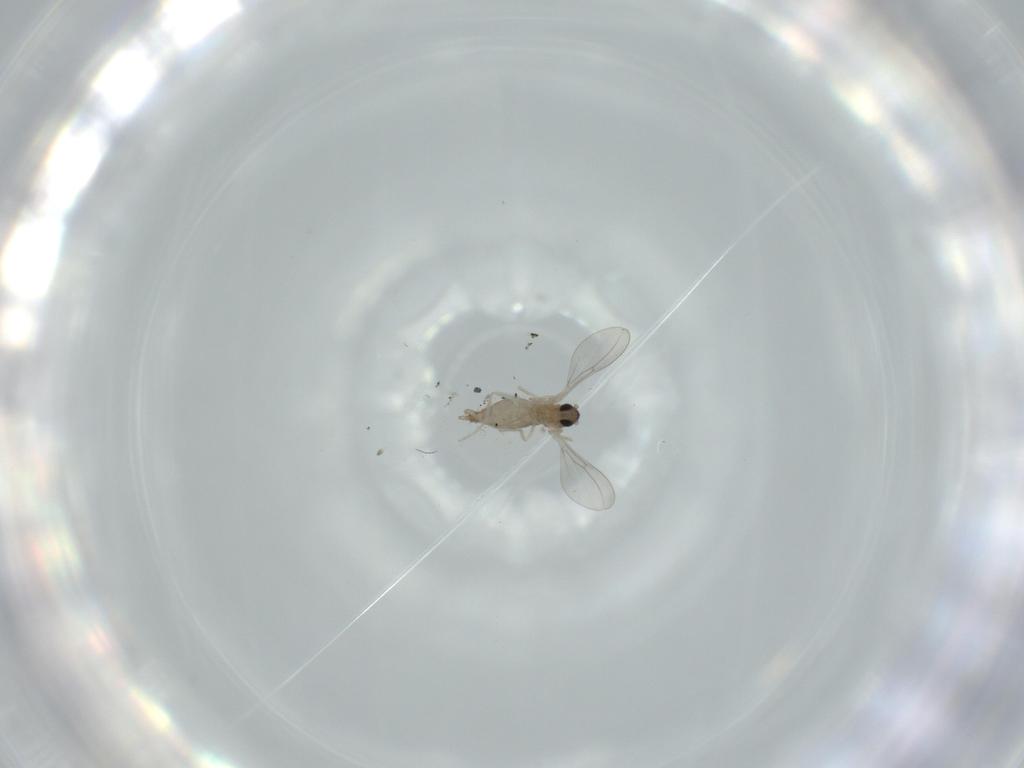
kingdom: Animalia
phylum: Arthropoda
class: Insecta
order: Diptera
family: Cecidomyiidae
